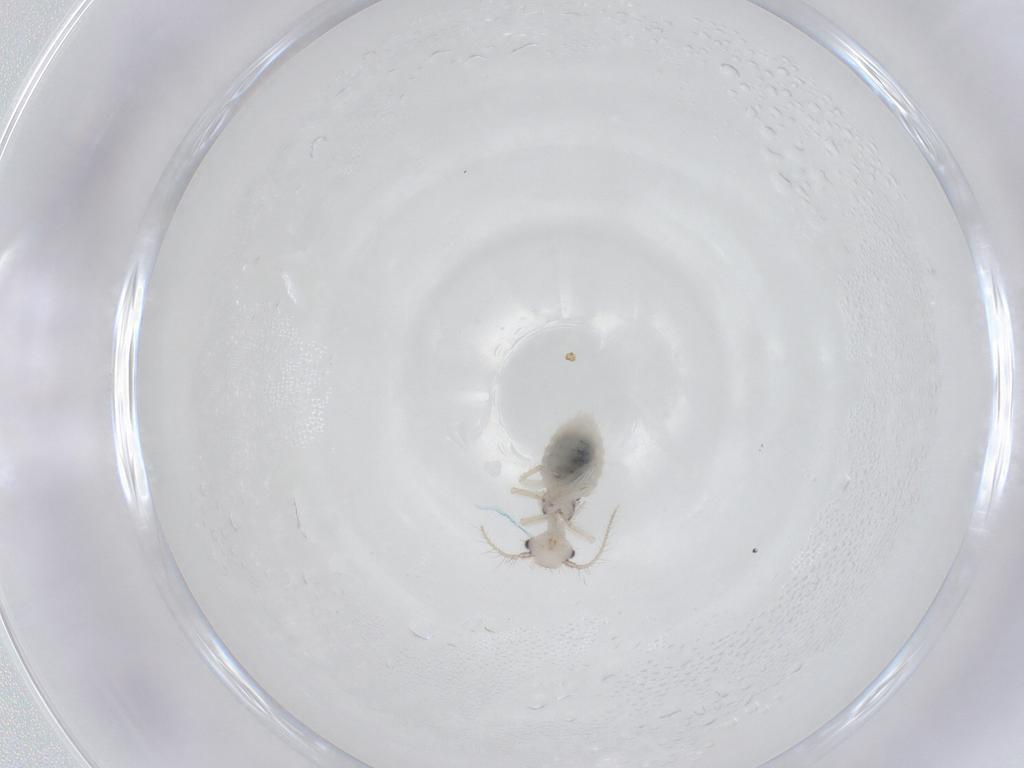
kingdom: Animalia
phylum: Arthropoda
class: Insecta
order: Psocodea
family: Pseudocaeciliidae
